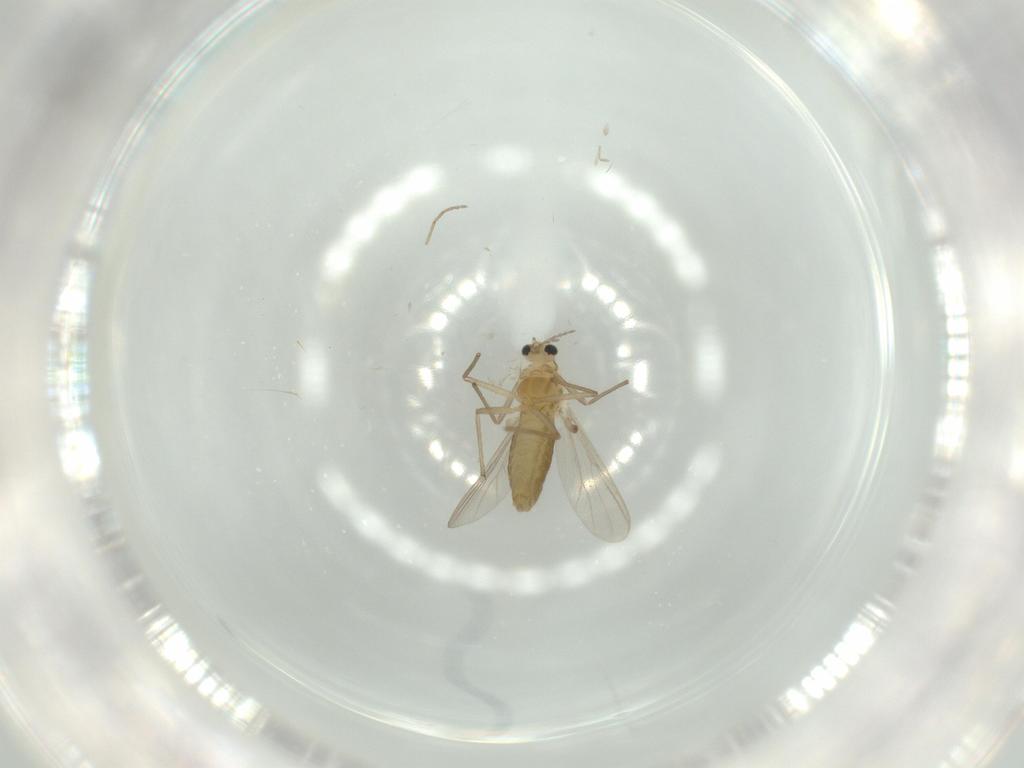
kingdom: Animalia
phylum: Arthropoda
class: Insecta
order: Diptera
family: Chironomidae
